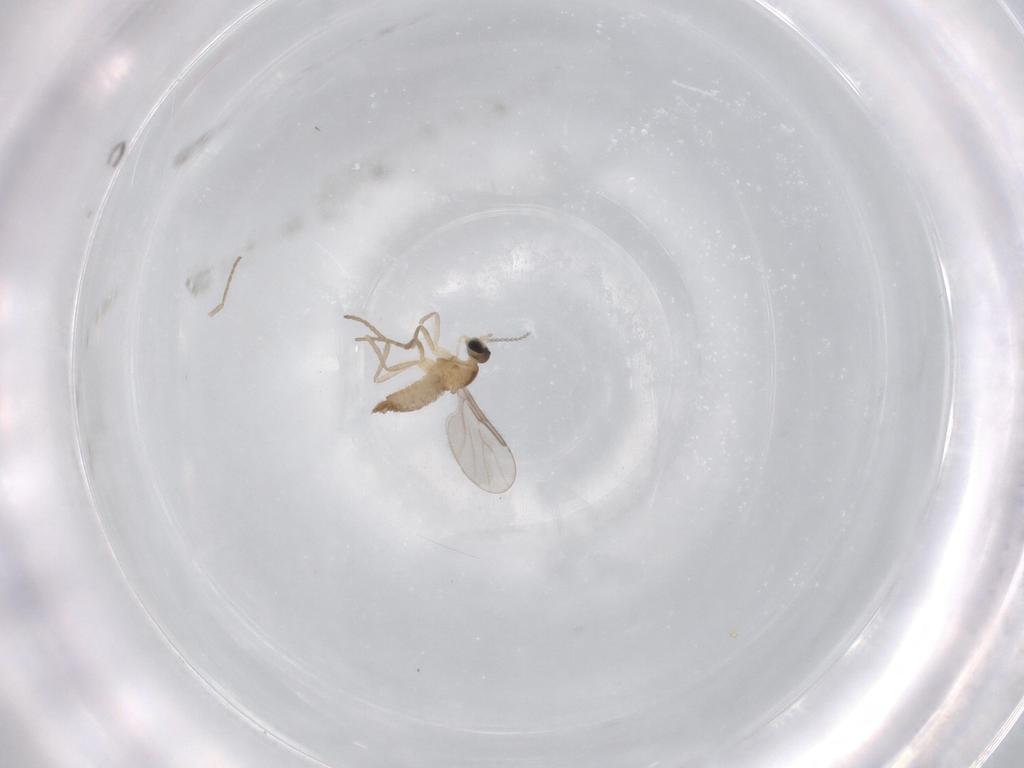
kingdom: Animalia
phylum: Arthropoda
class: Insecta
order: Diptera
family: Cecidomyiidae
